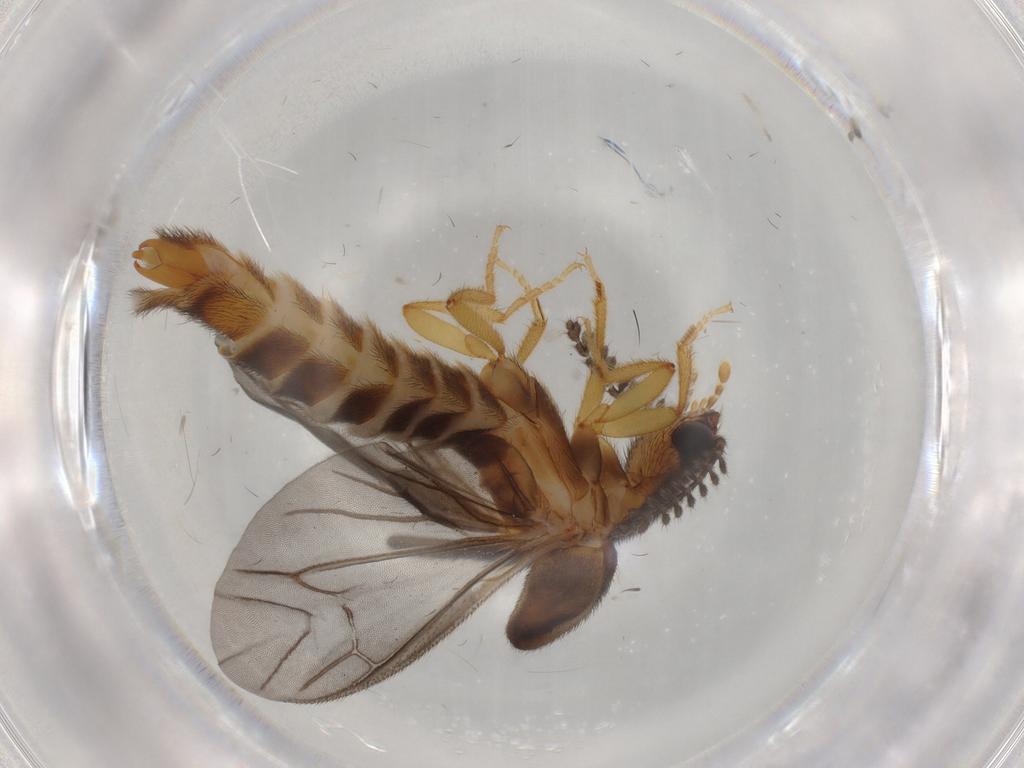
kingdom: Animalia
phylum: Arthropoda
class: Insecta
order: Coleoptera
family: Phengodidae
